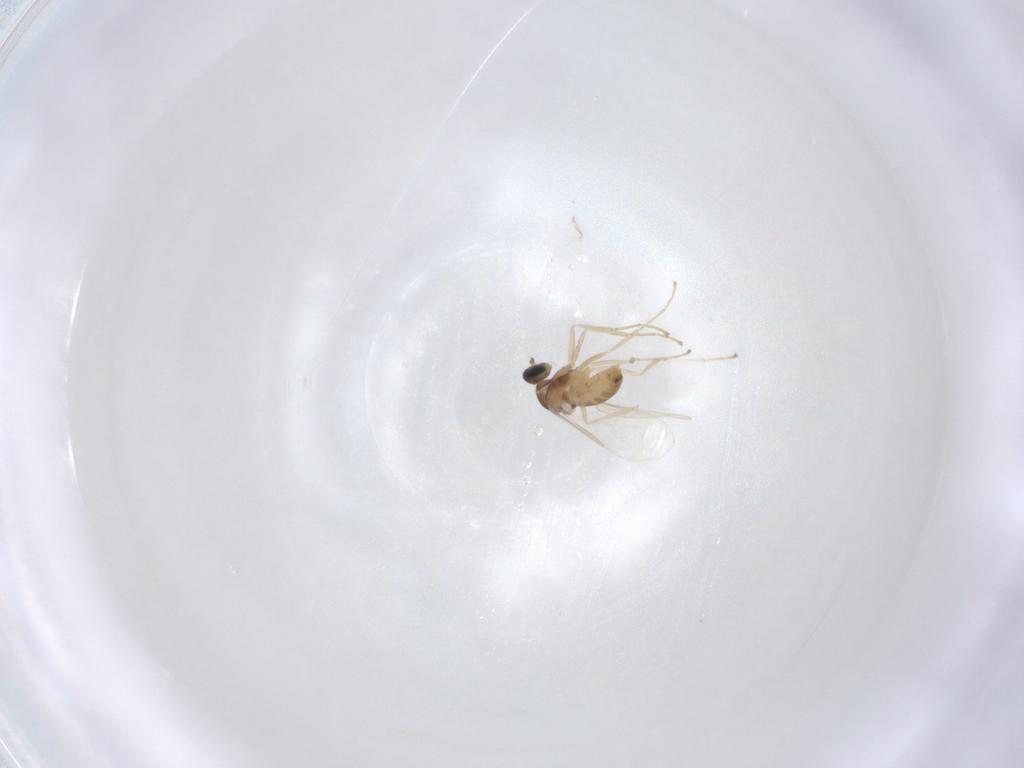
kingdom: Animalia
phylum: Arthropoda
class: Insecta
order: Diptera
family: Cecidomyiidae
